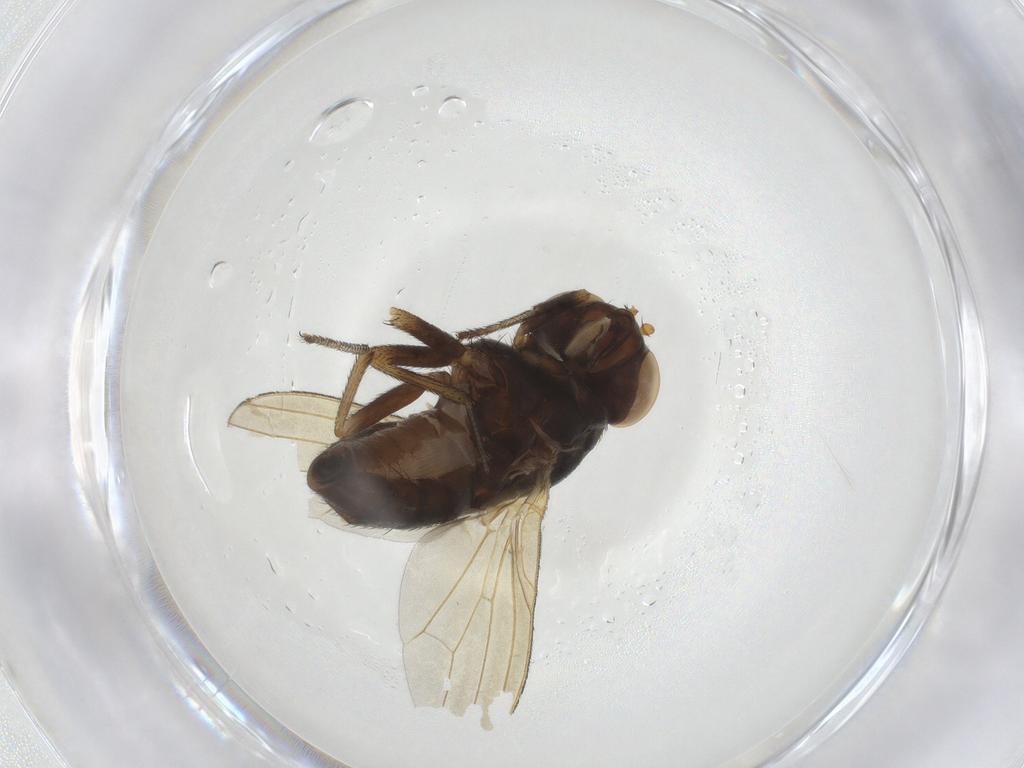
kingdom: Animalia
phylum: Arthropoda
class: Insecta
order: Diptera
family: Lauxaniidae
